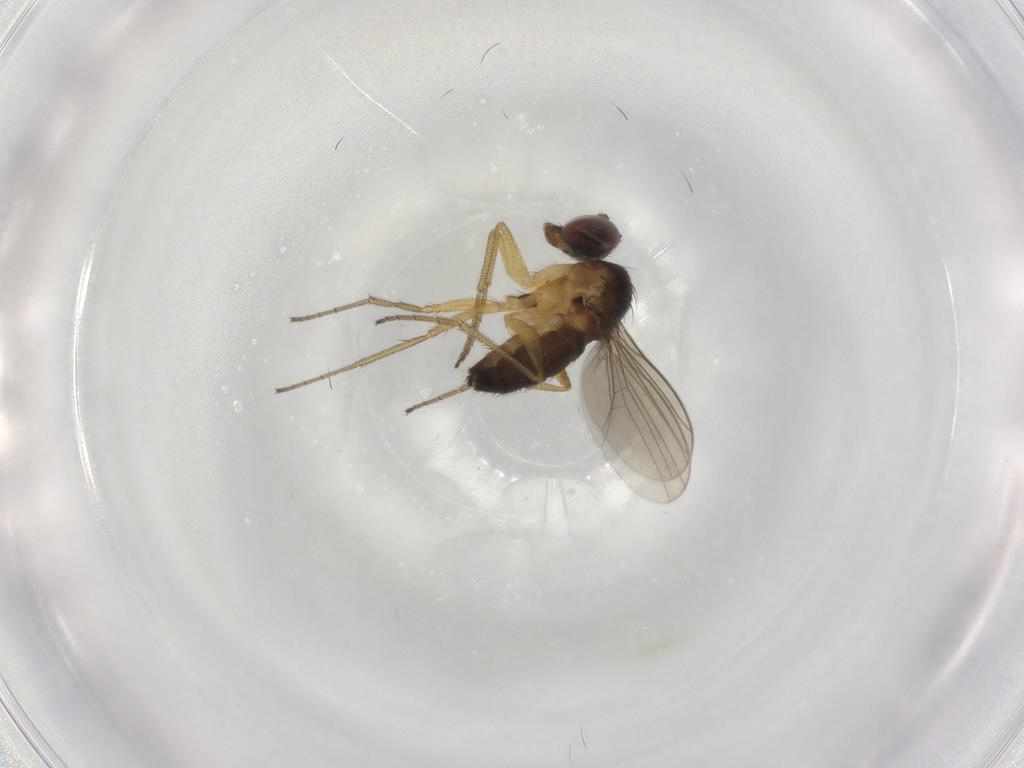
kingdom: Animalia
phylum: Arthropoda
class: Insecta
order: Diptera
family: Dolichopodidae
